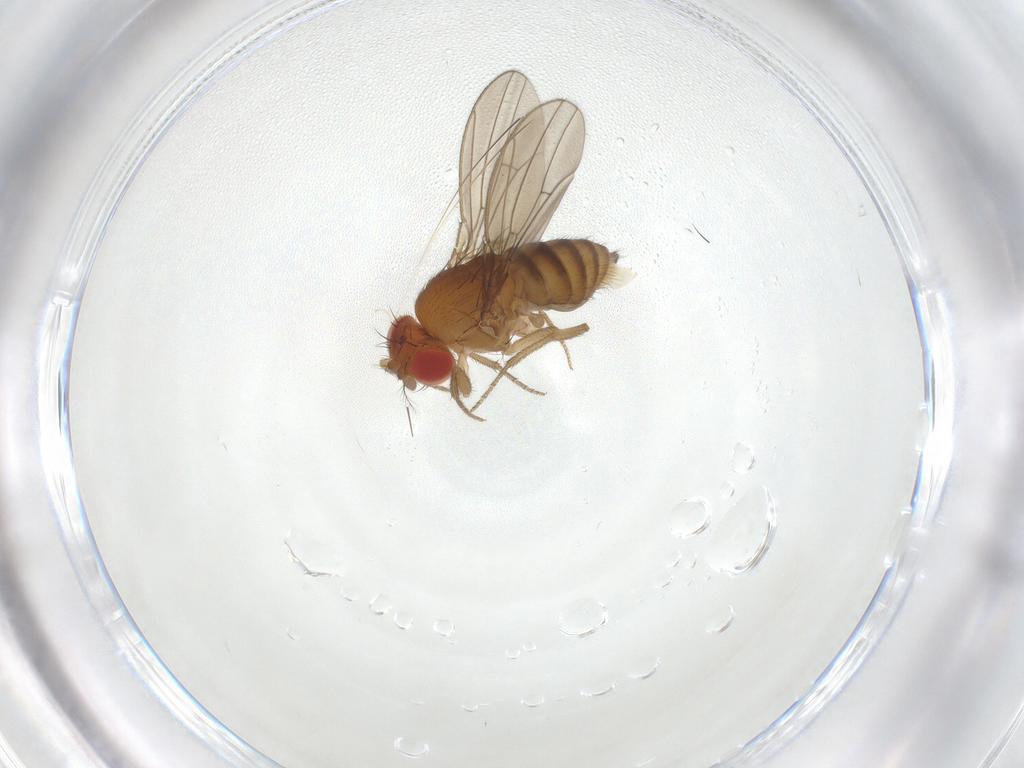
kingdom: Animalia
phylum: Arthropoda
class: Insecta
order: Diptera
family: Drosophilidae
